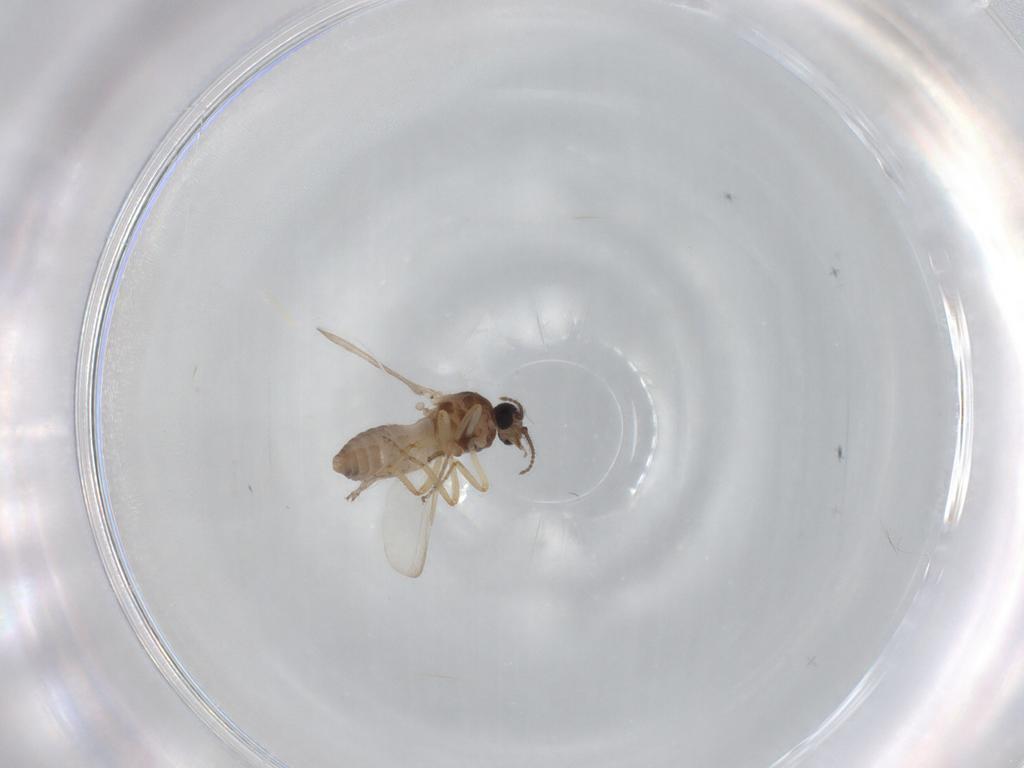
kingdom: Animalia
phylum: Arthropoda
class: Insecta
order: Diptera
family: Ceratopogonidae
